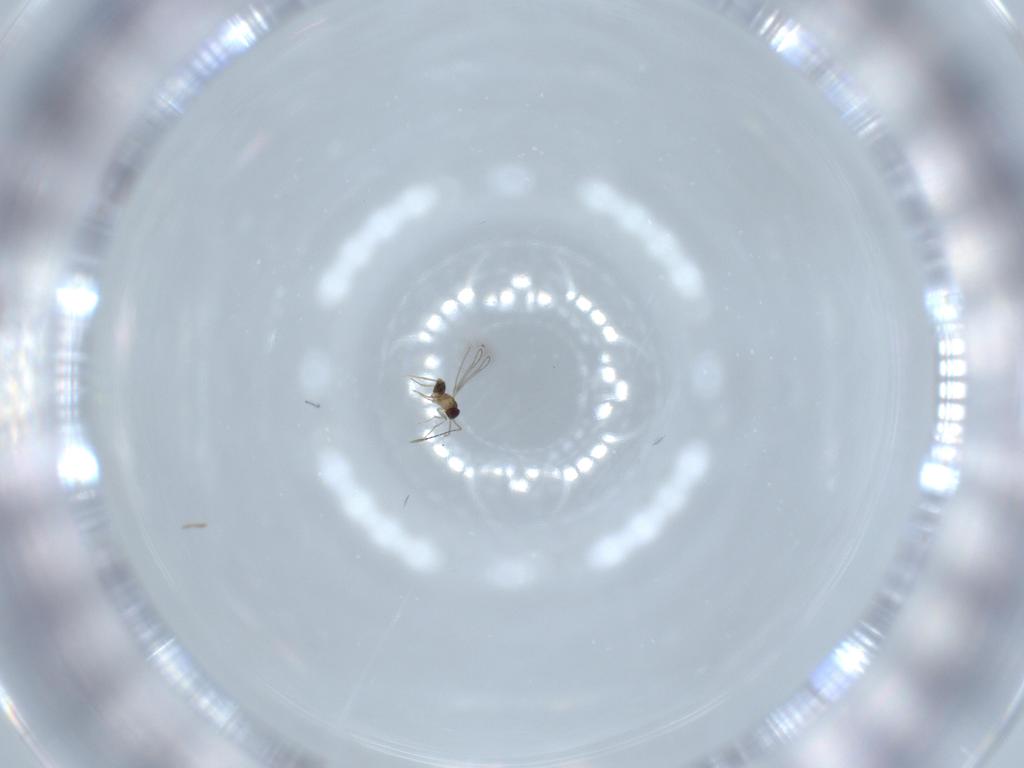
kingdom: Animalia
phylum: Arthropoda
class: Insecta
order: Hymenoptera
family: Mymaridae
